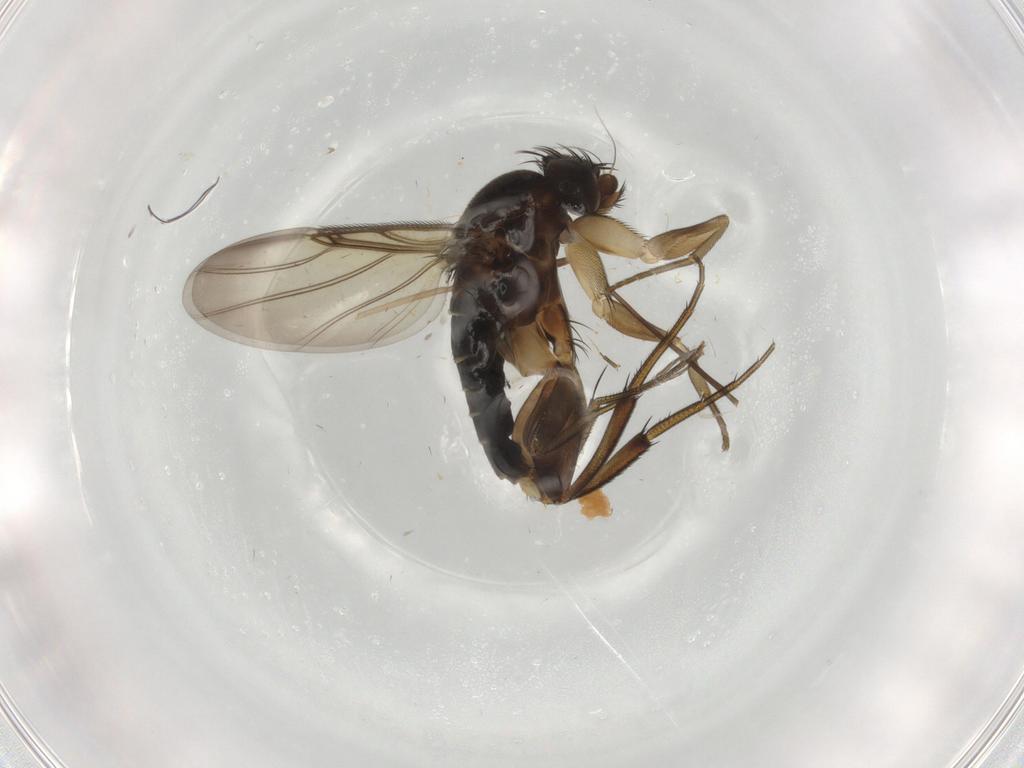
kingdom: Animalia
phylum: Arthropoda
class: Insecta
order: Diptera
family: Phoridae
